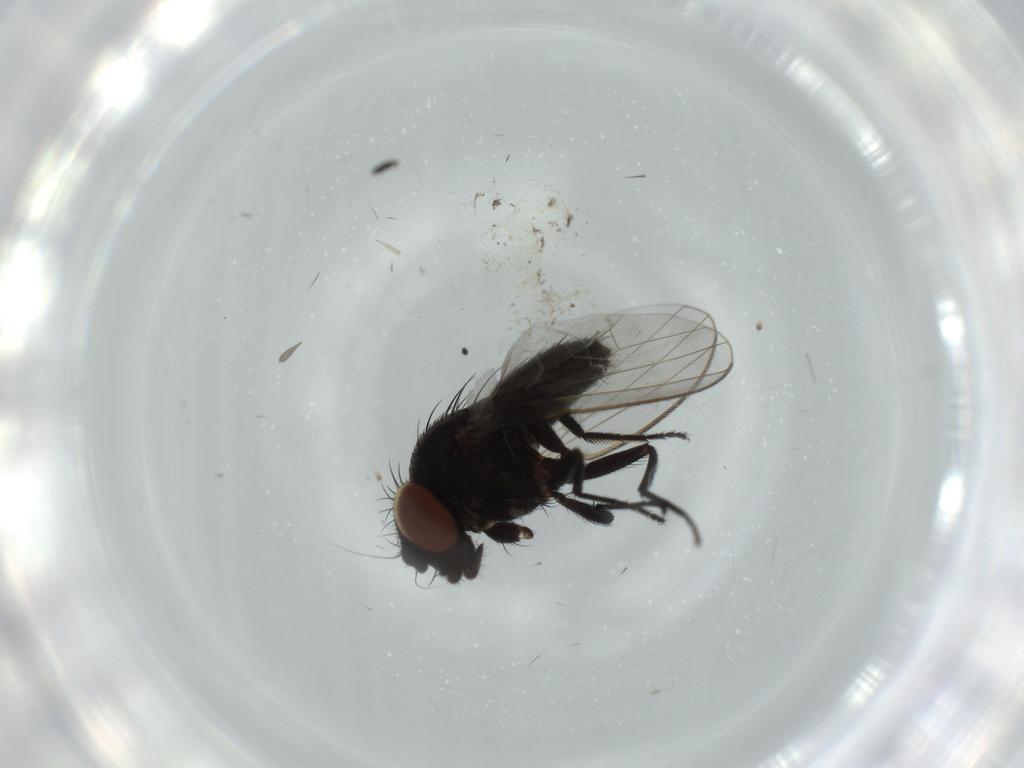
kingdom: Animalia
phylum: Arthropoda
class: Insecta
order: Diptera
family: Milichiidae
